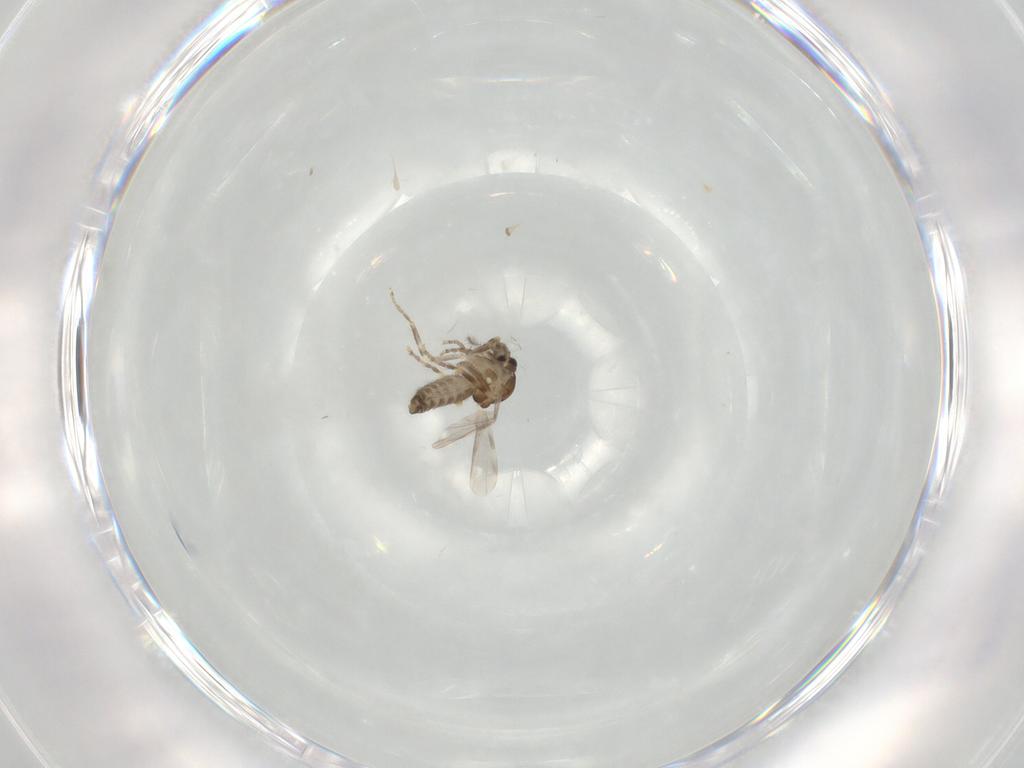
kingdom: Animalia
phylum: Arthropoda
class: Insecta
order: Diptera
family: Ceratopogonidae
